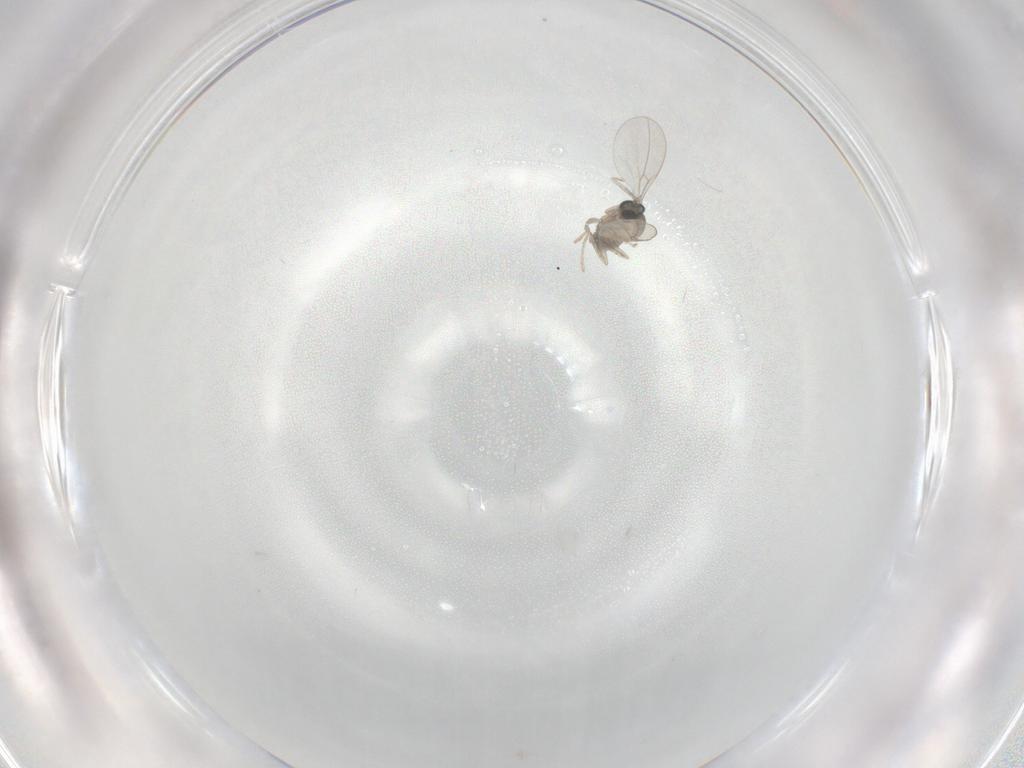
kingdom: Animalia
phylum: Arthropoda
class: Insecta
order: Diptera
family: Cecidomyiidae
